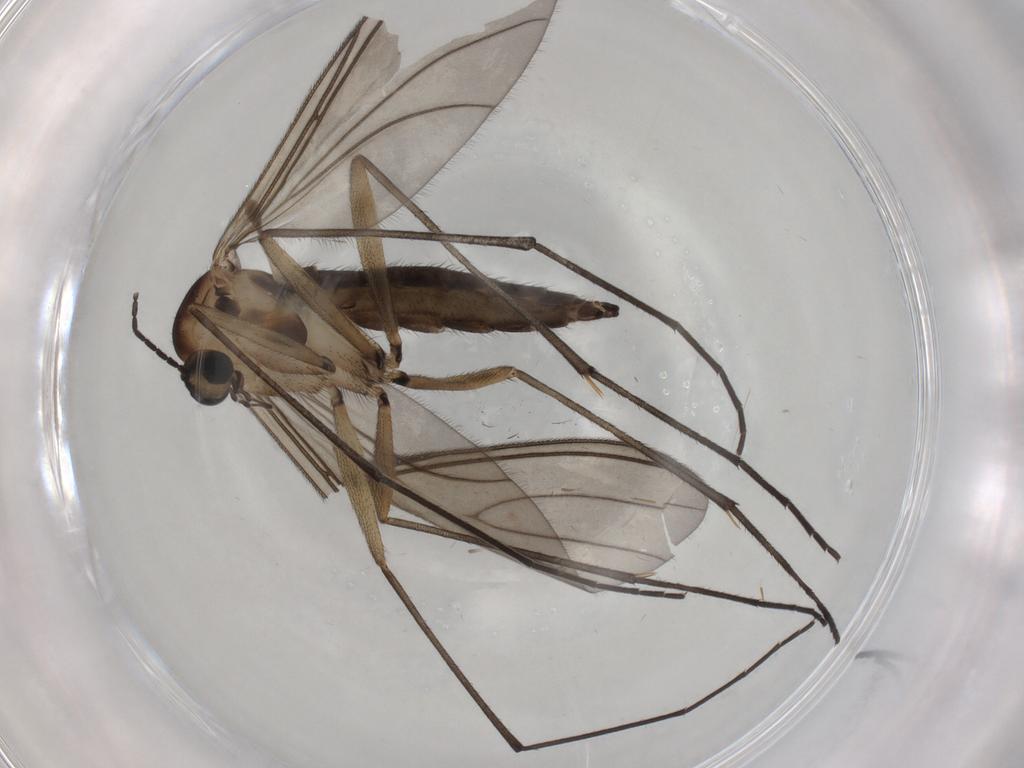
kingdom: Animalia
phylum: Arthropoda
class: Insecta
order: Diptera
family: Sciaridae
